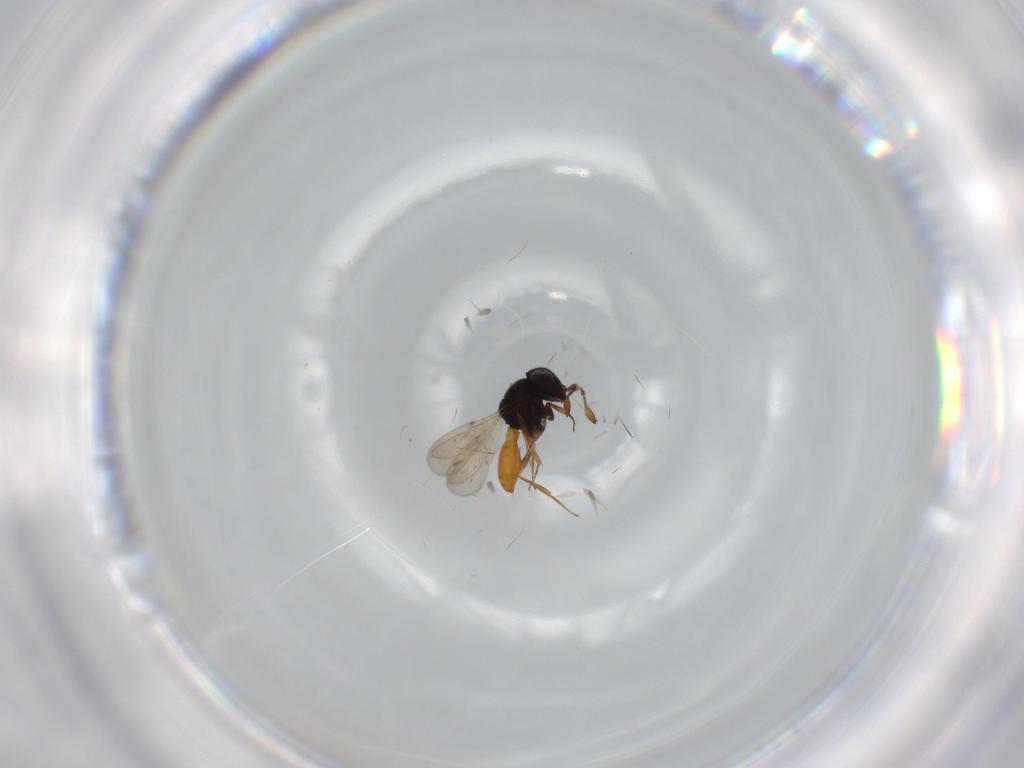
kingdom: Animalia
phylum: Arthropoda
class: Insecta
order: Hymenoptera
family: Scelionidae
